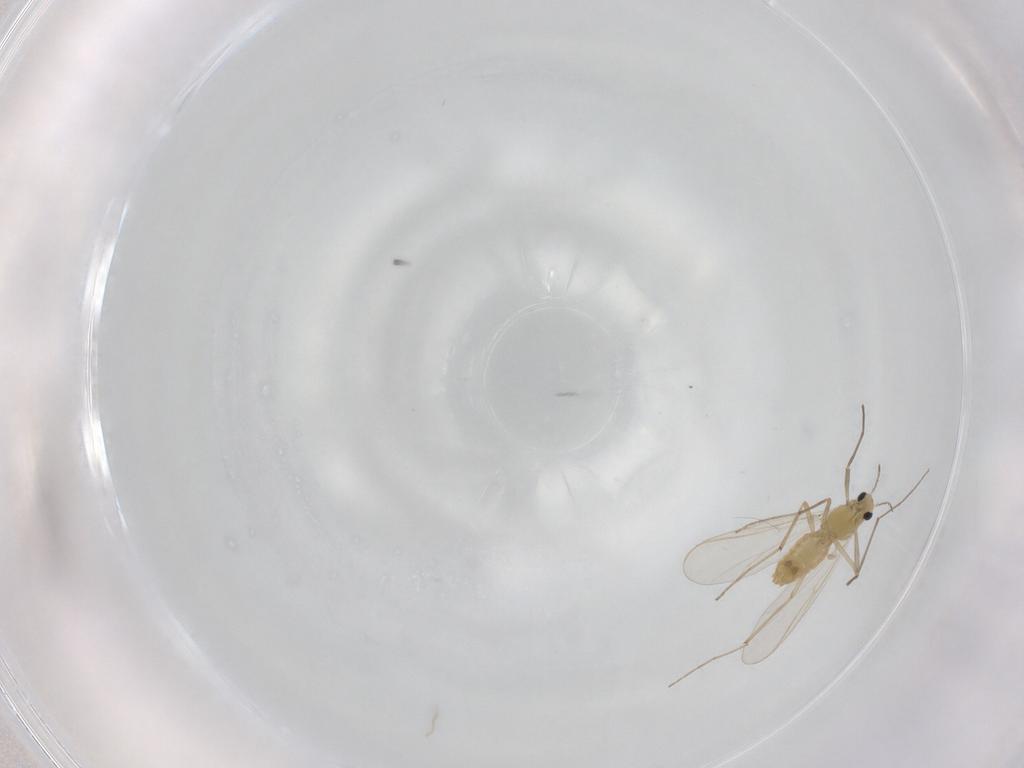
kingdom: Animalia
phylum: Arthropoda
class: Insecta
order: Diptera
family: Chironomidae
